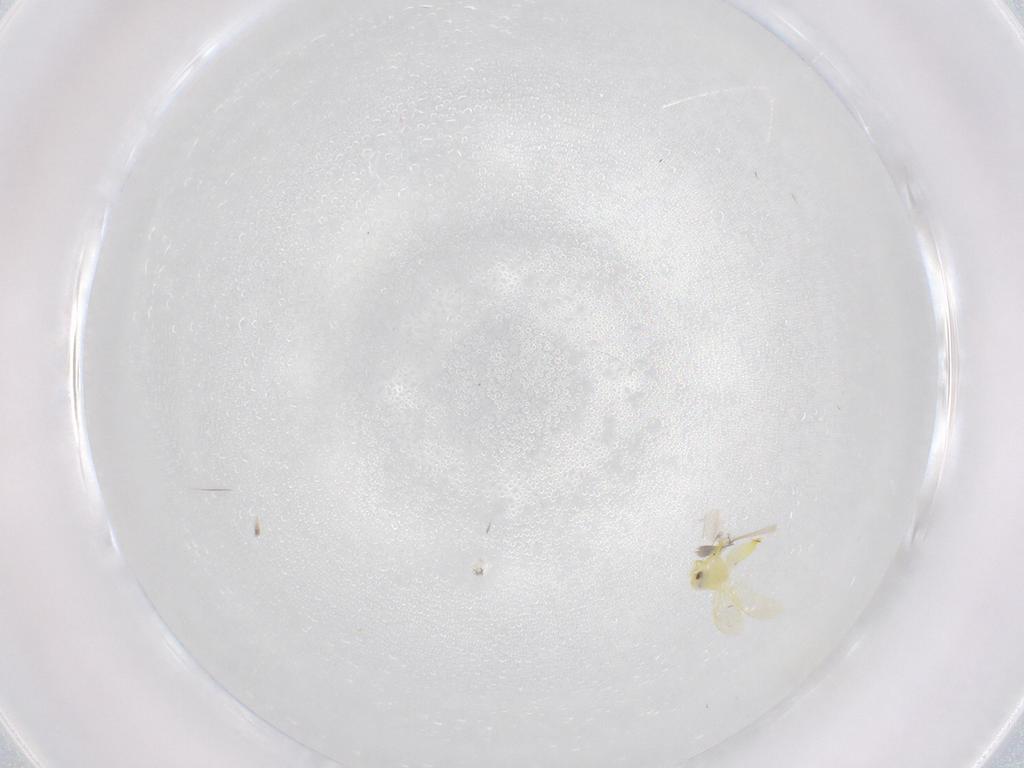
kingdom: Animalia
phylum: Arthropoda
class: Insecta
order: Hemiptera
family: Aleyrodidae
